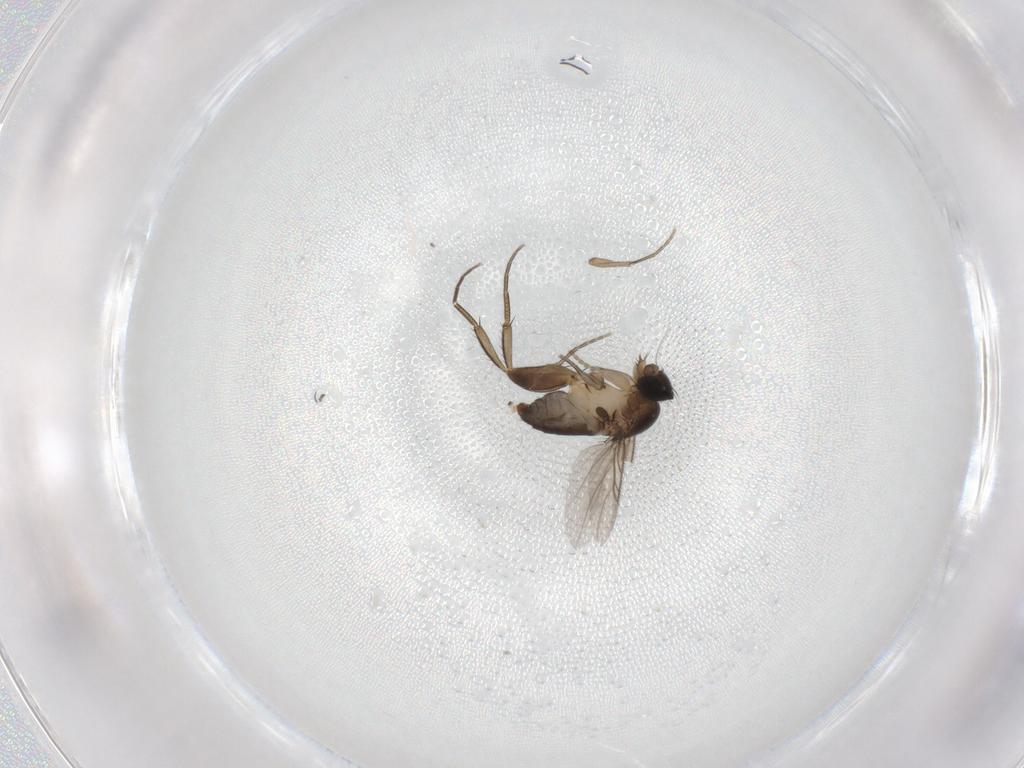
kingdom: Animalia
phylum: Arthropoda
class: Insecta
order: Diptera
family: Phoridae
